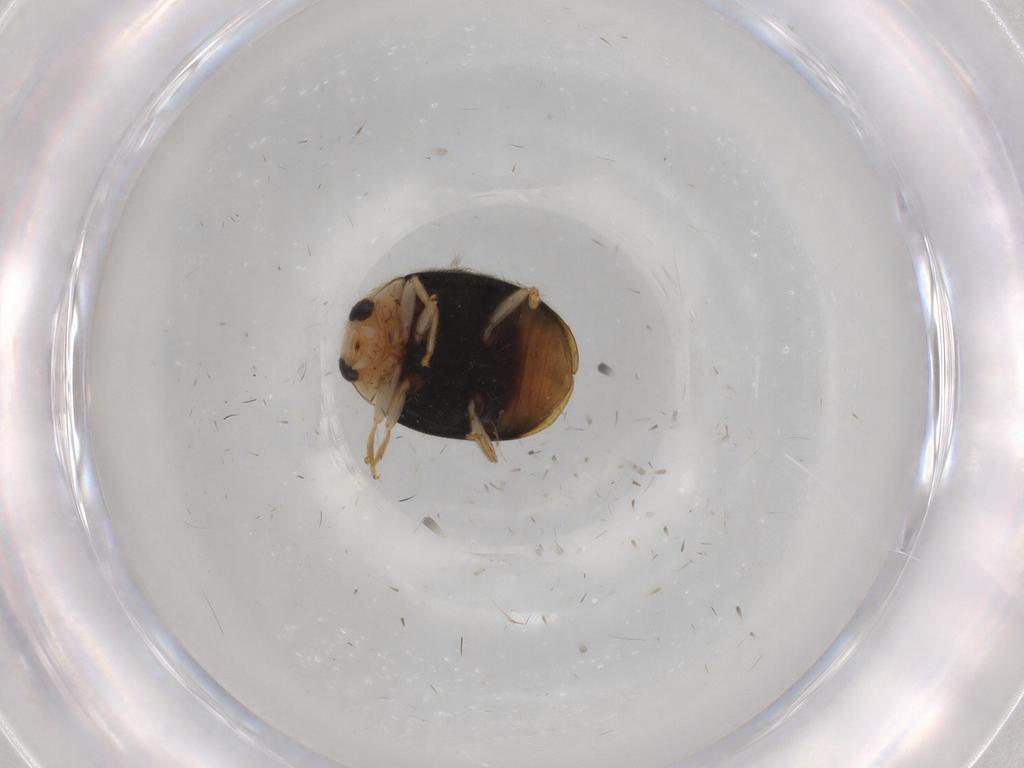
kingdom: Animalia
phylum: Arthropoda
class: Insecta
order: Coleoptera
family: Coccinellidae
